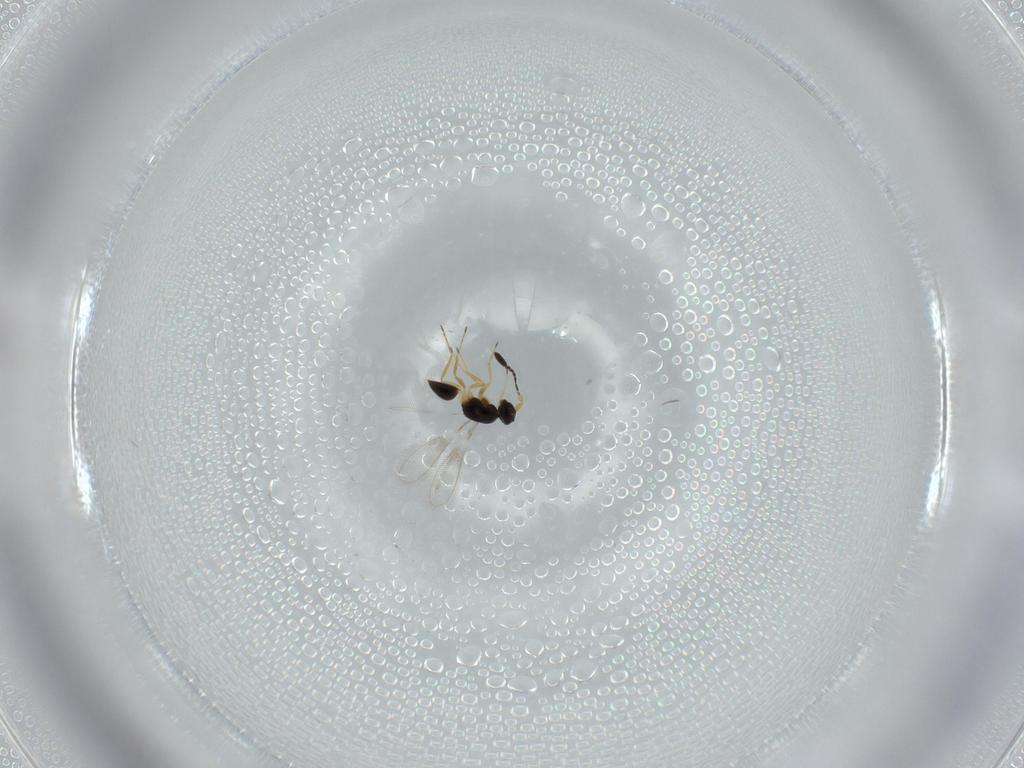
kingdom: Animalia
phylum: Arthropoda
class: Insecta
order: Hymenoptera
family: Mymaridae
